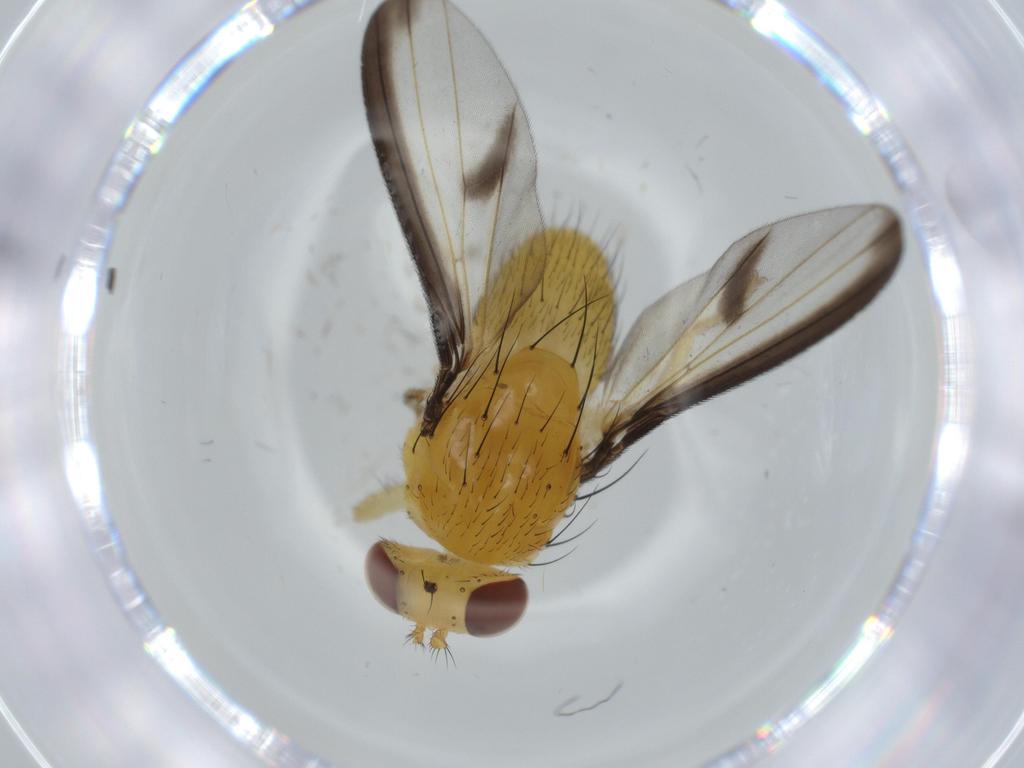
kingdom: Animalia
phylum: Arthropoda
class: Insecta
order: Diptera
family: Lauxaniidae
